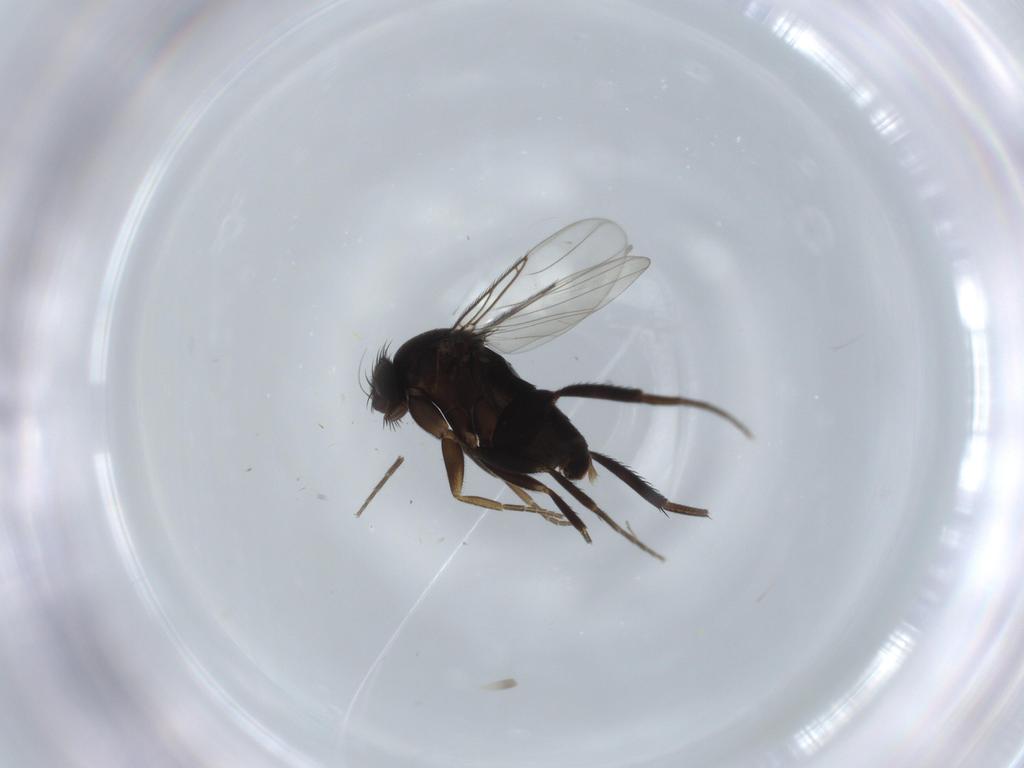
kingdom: Animalia
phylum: Arthropoda
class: Insecta
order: Diptera
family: Phoridae
